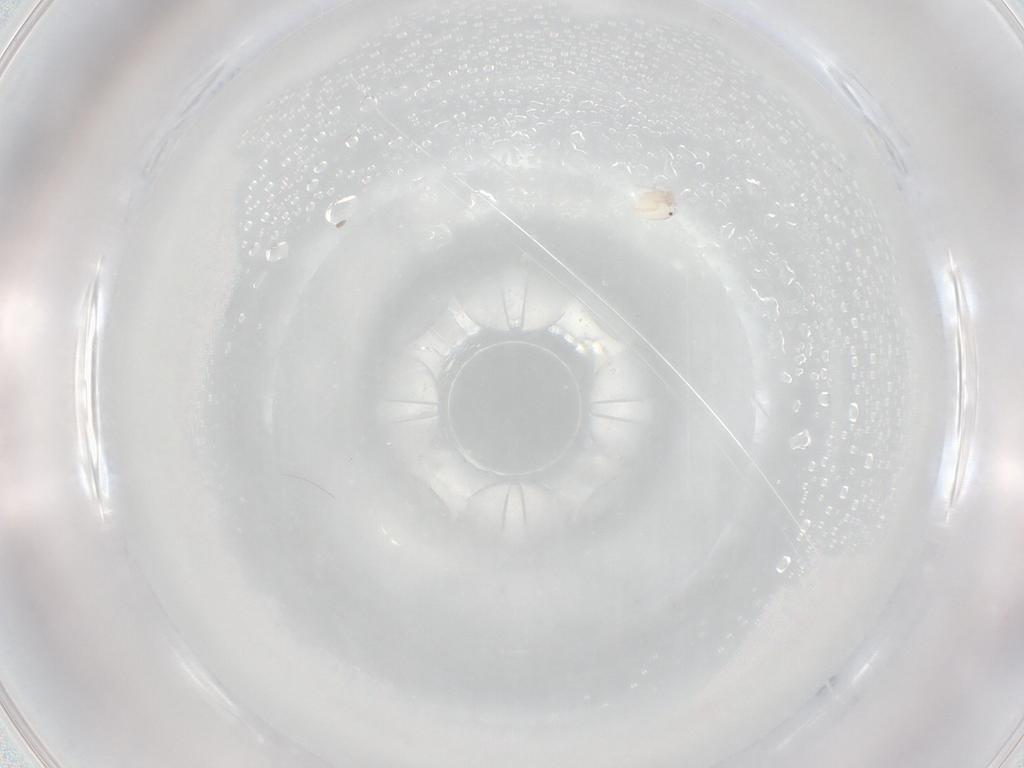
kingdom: Animalia
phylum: Arthropoda
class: Arachnida
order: Trombidiformes
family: Lebertiidae
